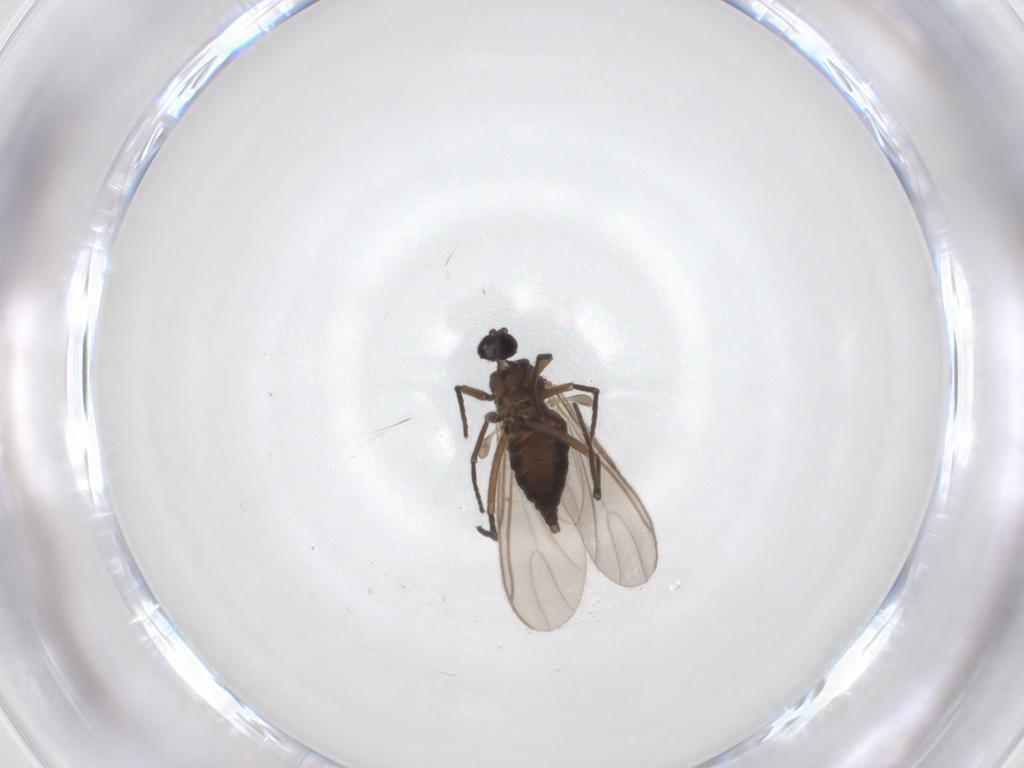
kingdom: Animalia
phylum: Arthropoda
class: Insecta
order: Diptera
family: Sciaridae
